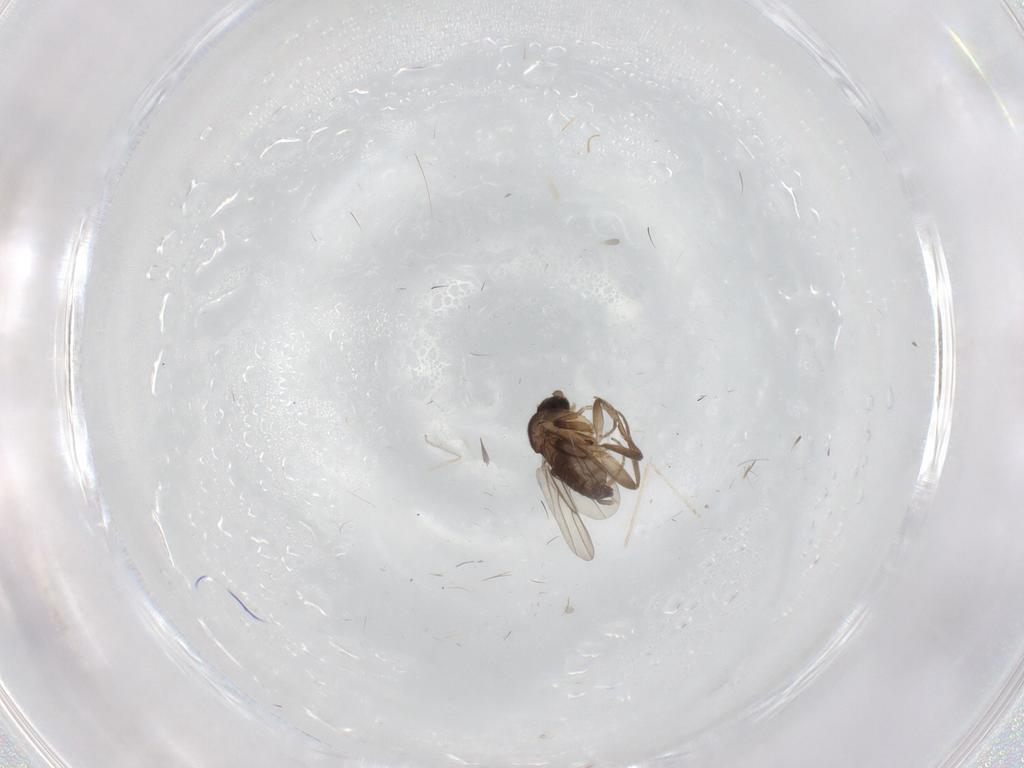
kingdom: Animalia
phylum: Arthropoda
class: Insecta
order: Diptera
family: Phoridae
